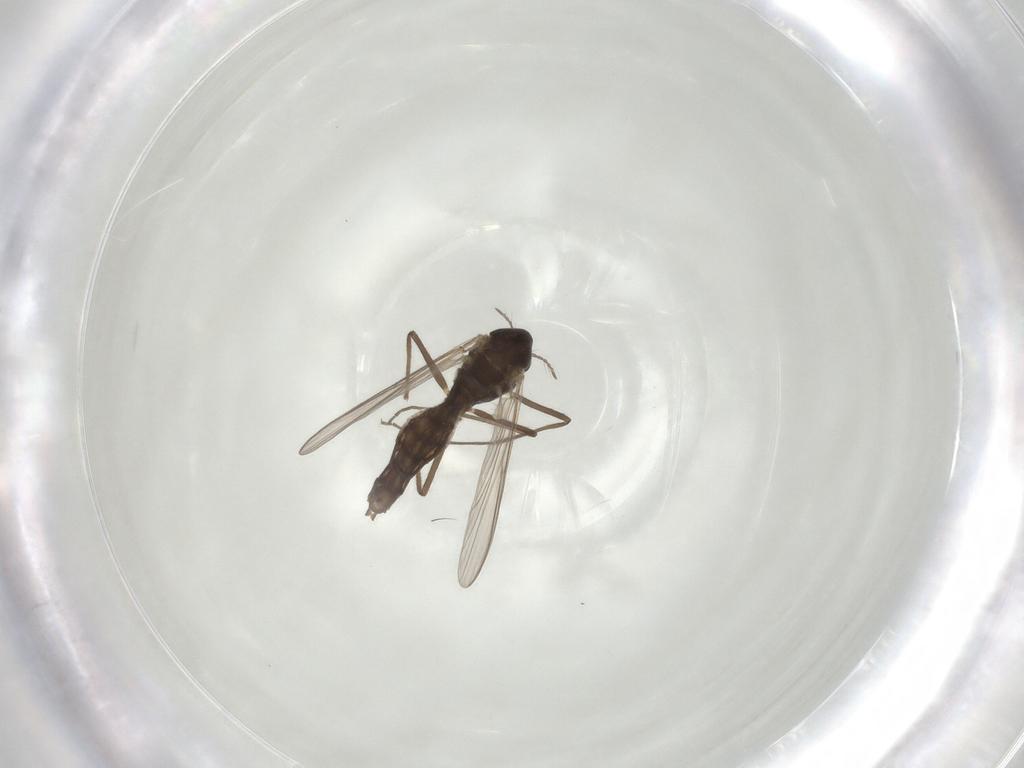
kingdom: Animalia
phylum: Arthropoda
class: Insecta
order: Diptera
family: Chironomidae
